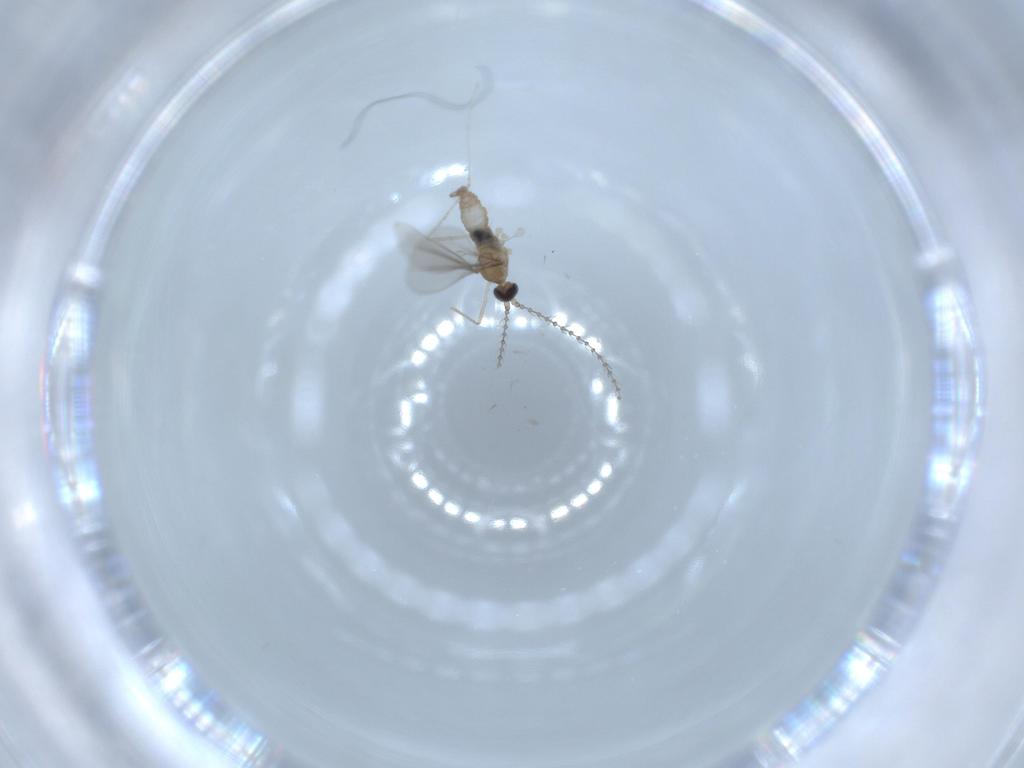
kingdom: Animalia
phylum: Arthropoda
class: Insecta
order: Diptera
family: Cecidomyiidae
